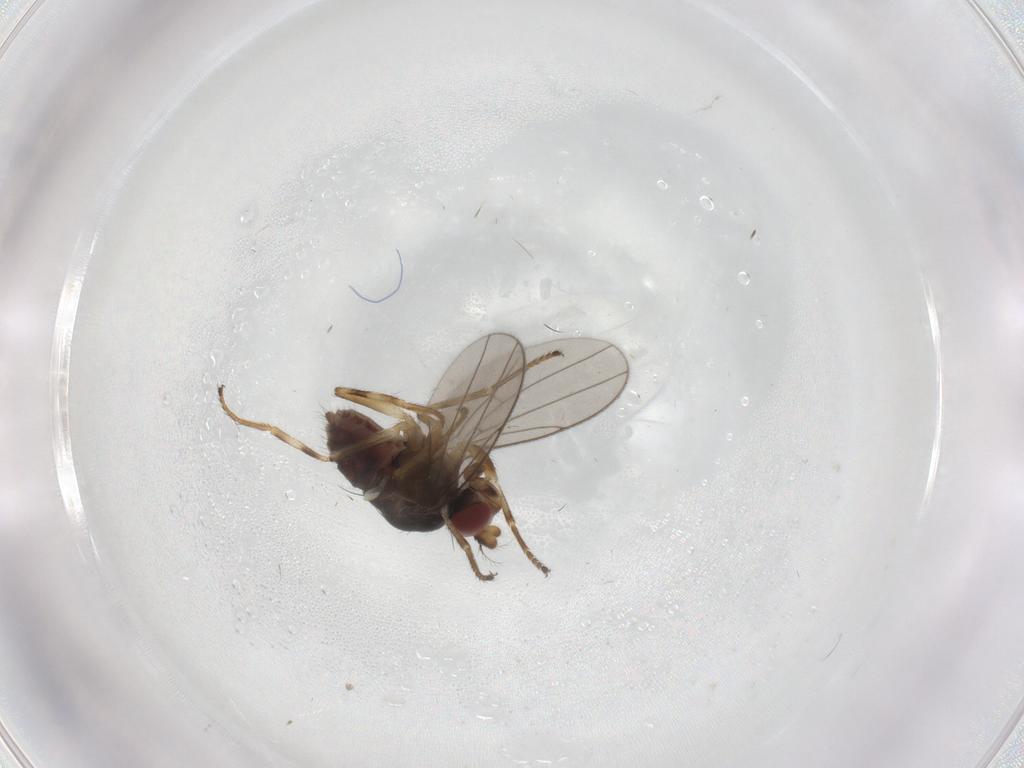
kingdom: Animalia
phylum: Arthropoda
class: Insecta
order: Diptera
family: Ephydridae
